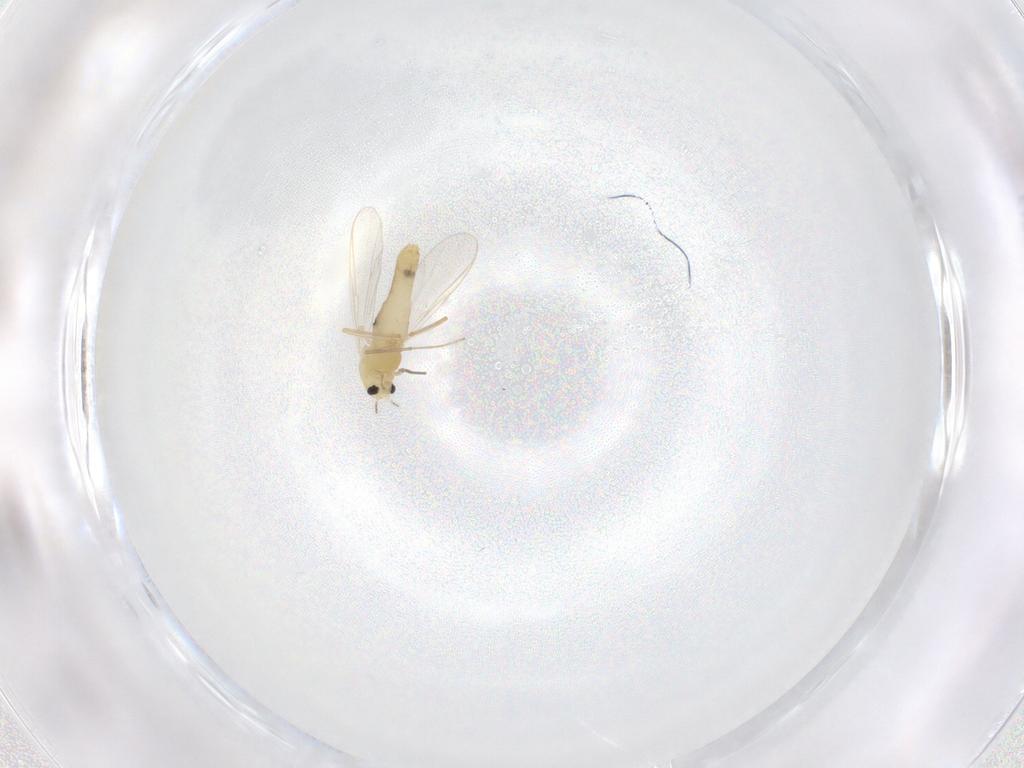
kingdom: Animalia
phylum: Arthropoda
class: Insecta
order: Diptera
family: Chironomidae
